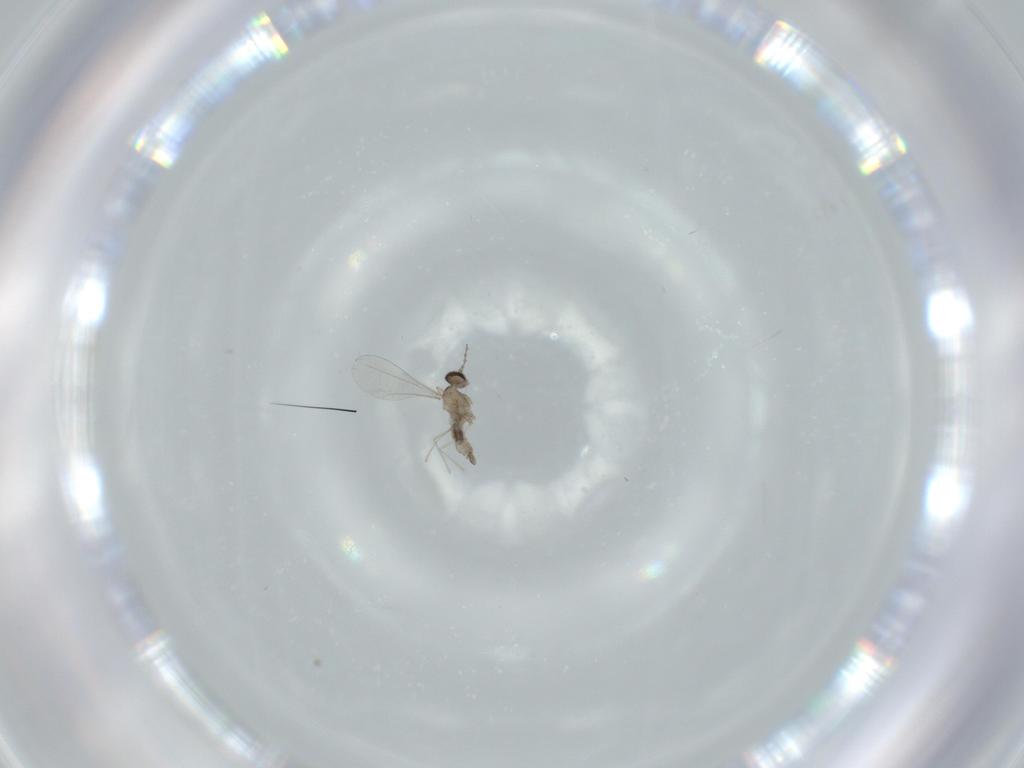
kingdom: Animalia
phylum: Arthropoda
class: Insecta
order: Diptera
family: Cecidomyiidae
